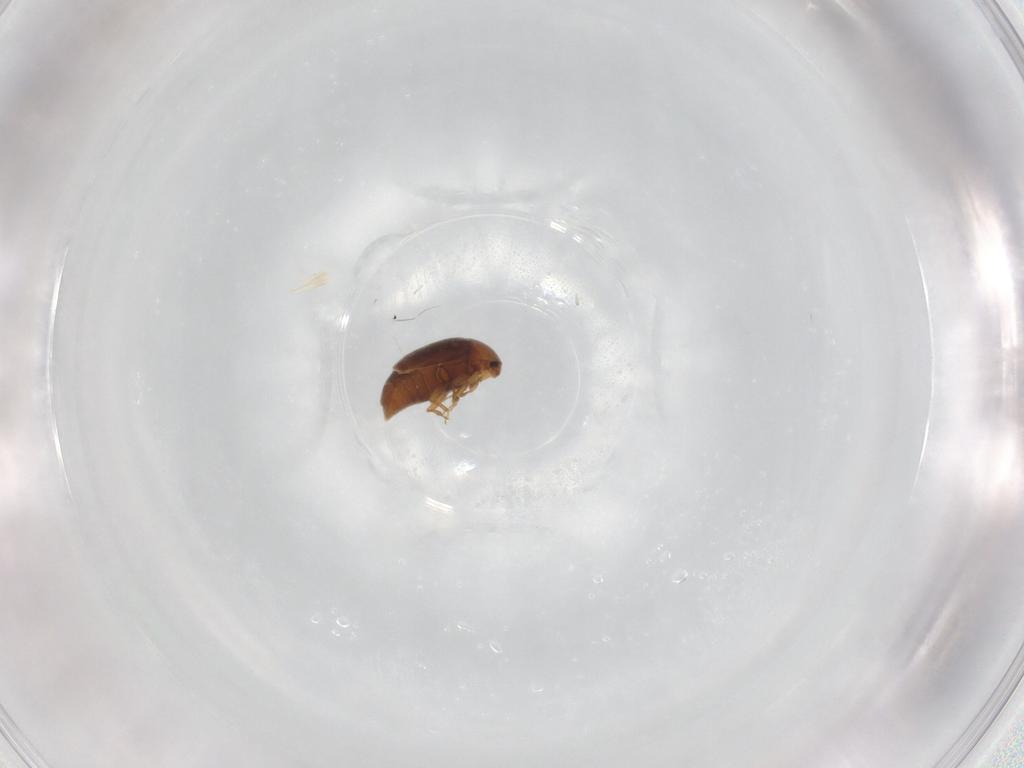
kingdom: Animalia
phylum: Arthropoda
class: Insecta
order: Coleoptera
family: Corylophidae
